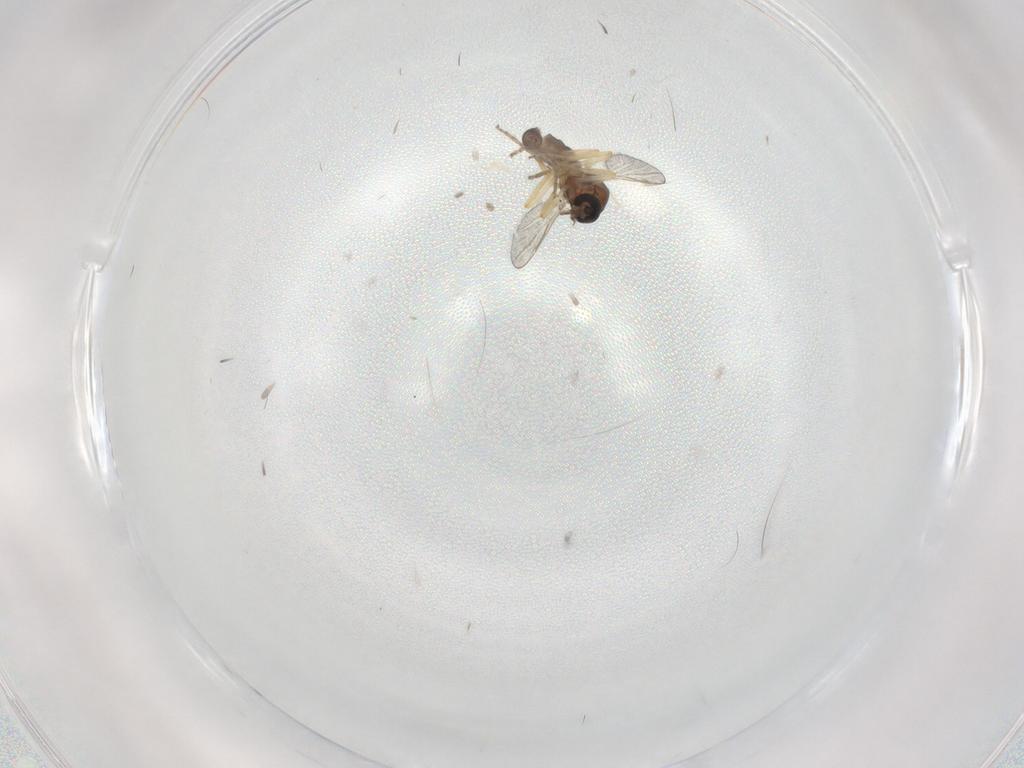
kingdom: Animalia
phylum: Arthropoda
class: Insecta
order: Diptera
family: Ceratopogonidae
